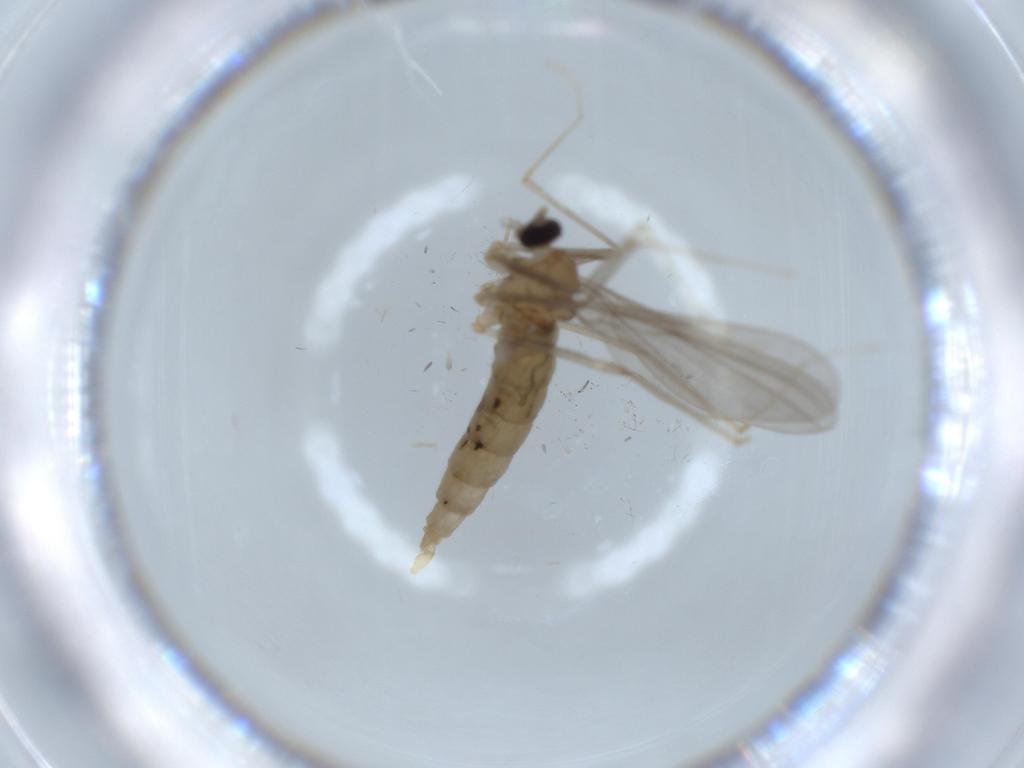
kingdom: Animalia
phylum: Arthropoda
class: Insecta
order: Diptera
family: Cecidomyiidae
